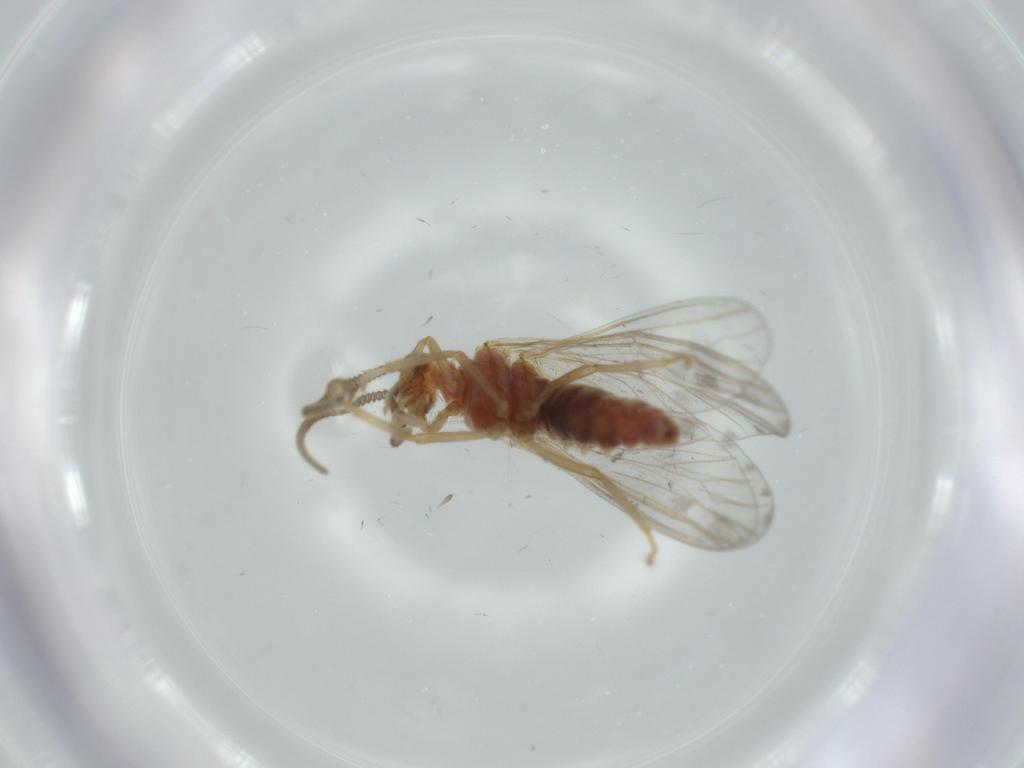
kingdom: Animalia
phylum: Arthropoda
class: Insecta
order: Neuroptera
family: Coniopterygidae
